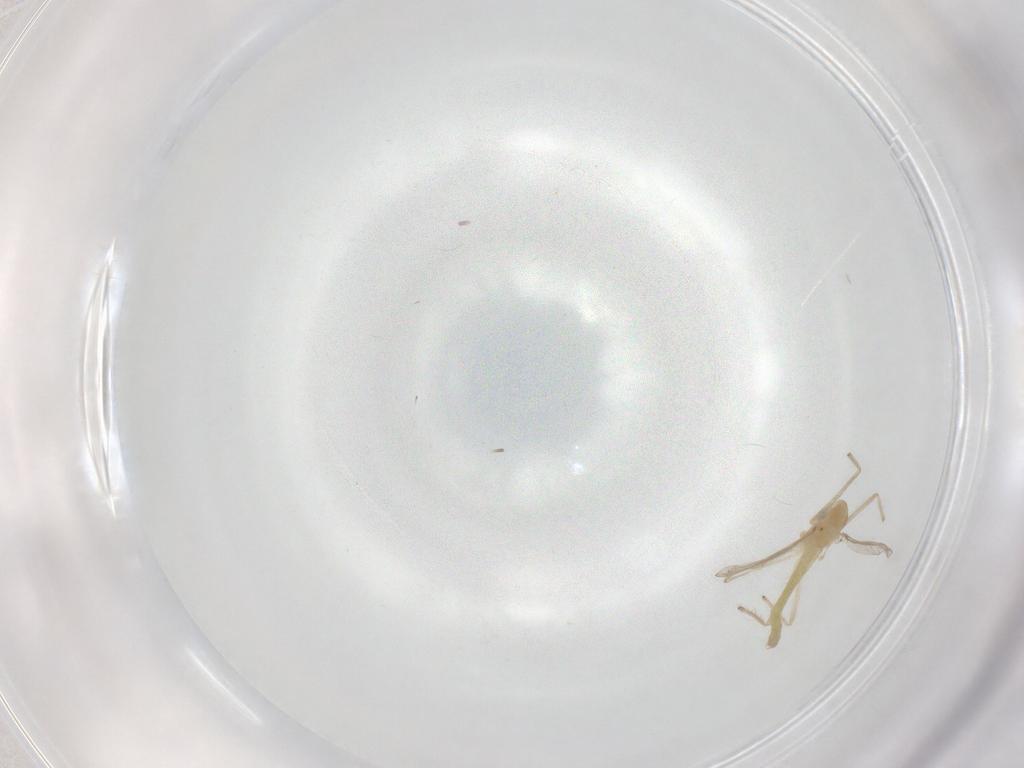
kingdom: Animalia
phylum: Arthropoda
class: Insecta
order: Diptera
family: Chironomidae
